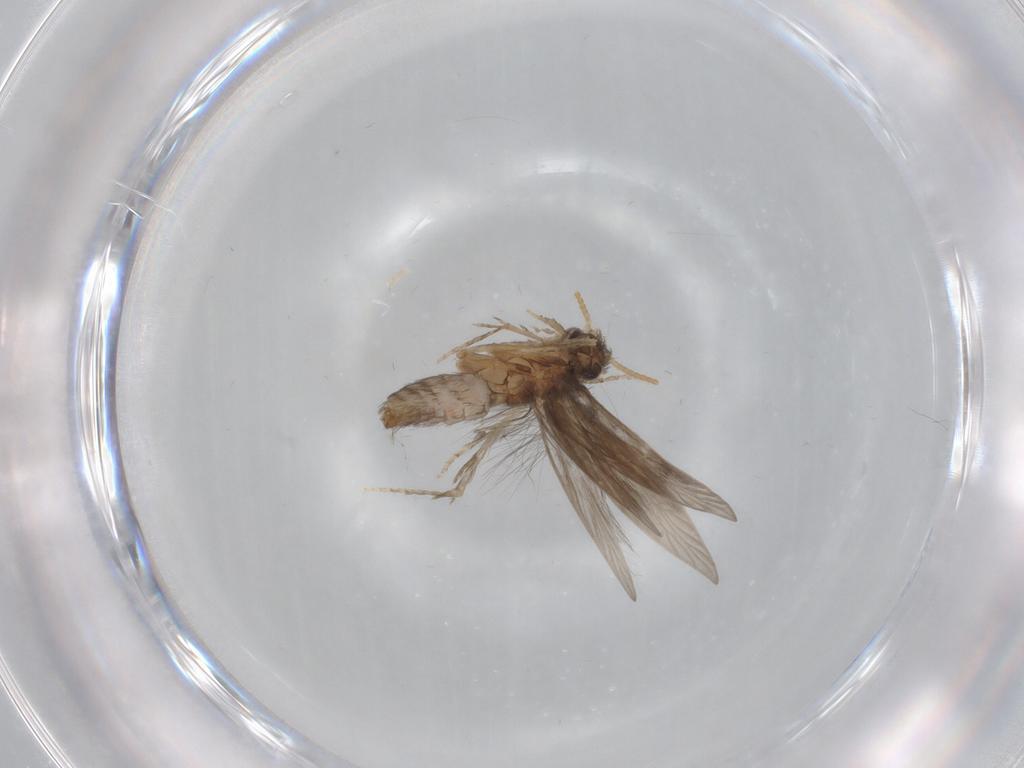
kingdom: Animalia
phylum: Arthropoda
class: Insecta
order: Trichoptera
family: Hydroptilidae
